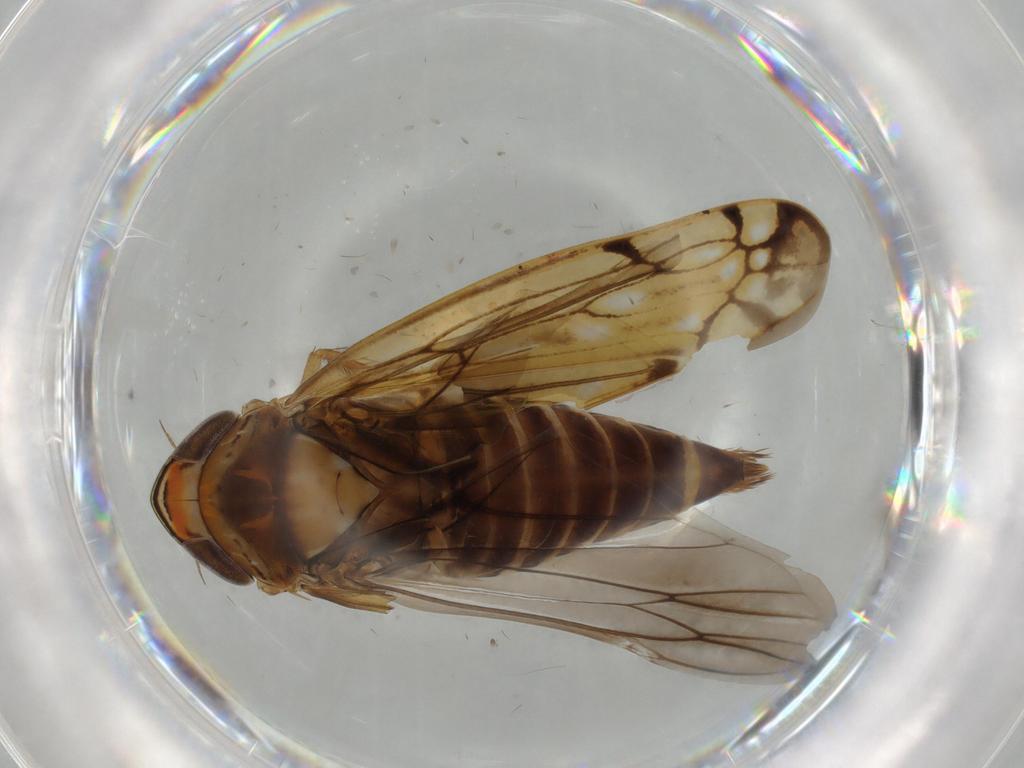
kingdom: Animalia
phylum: Arthropoda
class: Insecta
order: Hemiptera
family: Cicadellidae
